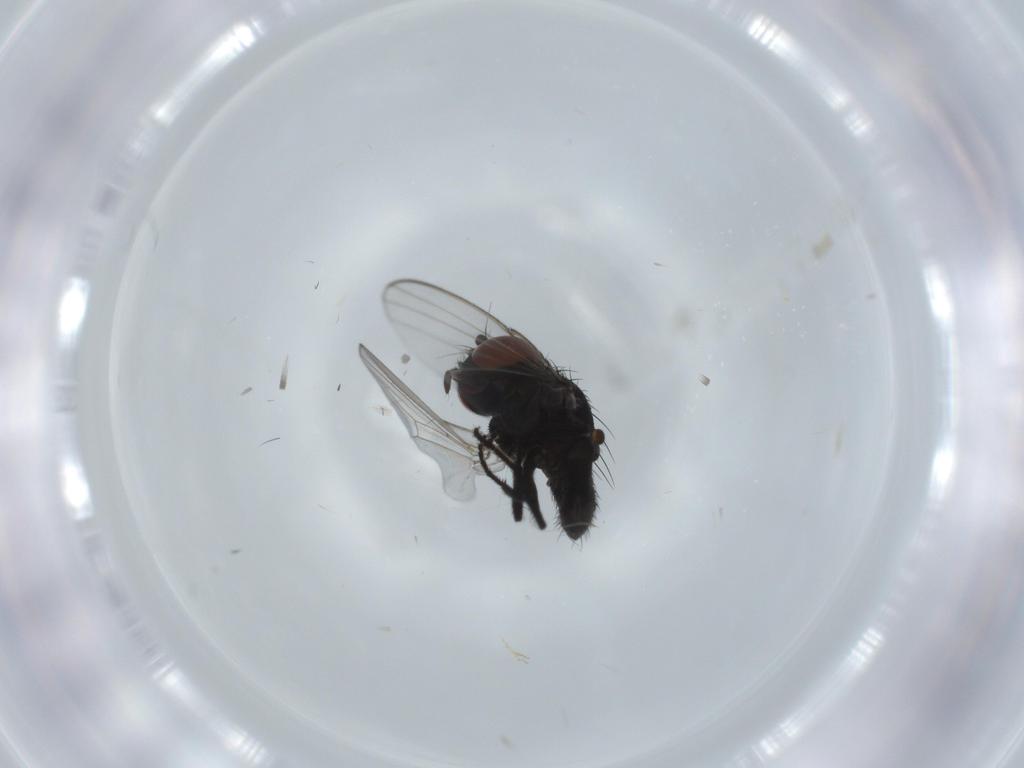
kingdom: Animalia
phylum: Arthropoda
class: Insecta
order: Diptera
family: Milichiidae
